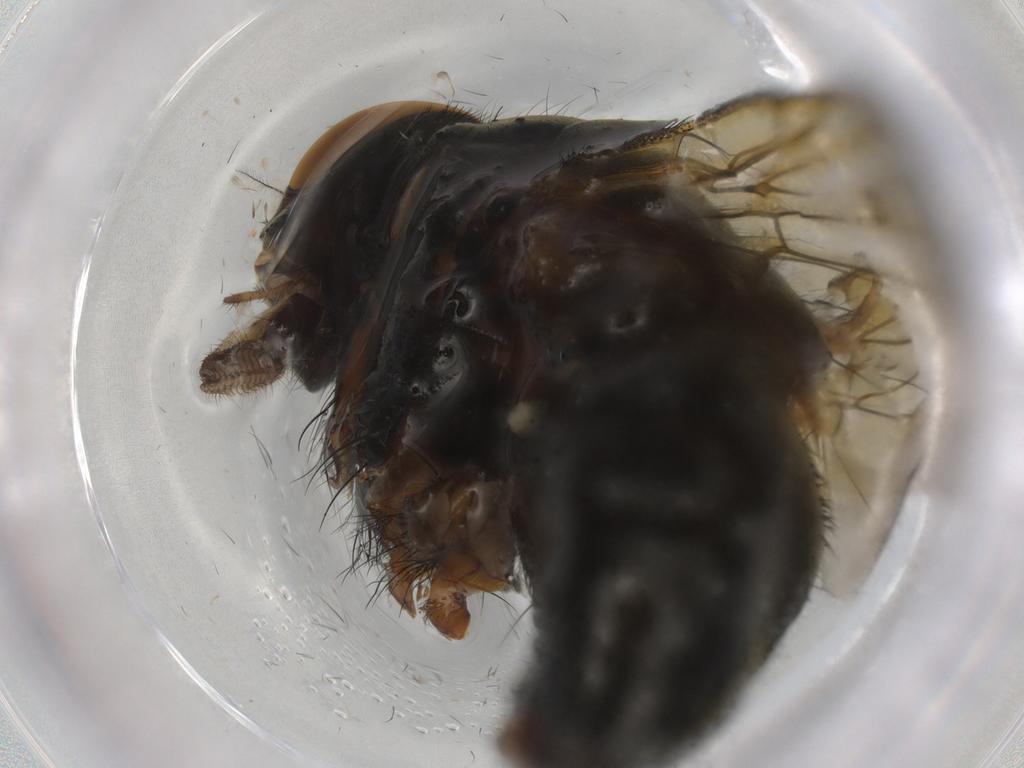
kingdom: Animalia
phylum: Arthropoda
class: Insecta
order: Diptera
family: Muscidae
